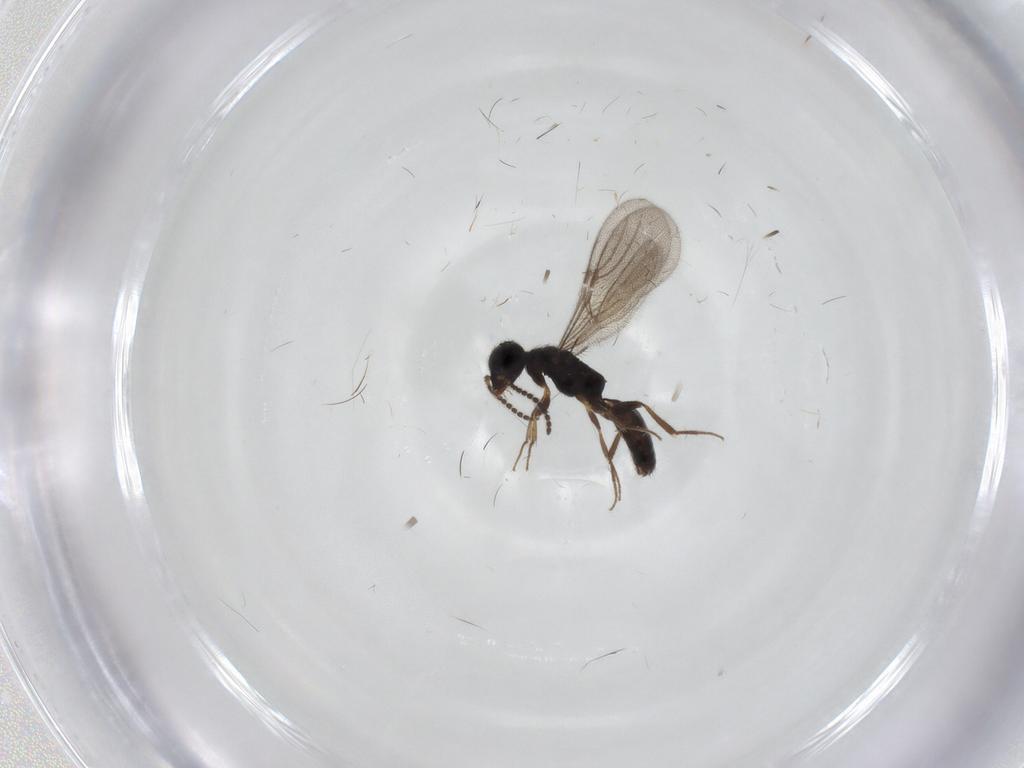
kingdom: Animalia
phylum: Arthropoda
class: Insecta
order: Hymenoptera
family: Bethylidae
